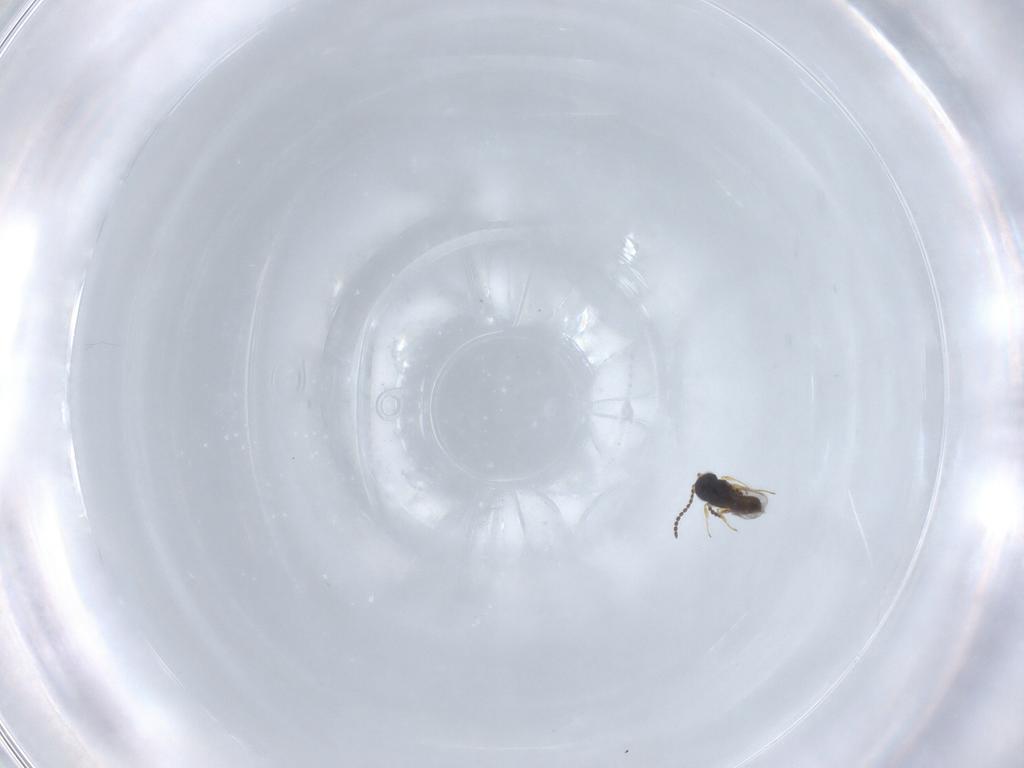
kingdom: Animalia
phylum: Arthropoda
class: Insecta
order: Hymenoptera
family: Scelionidae
